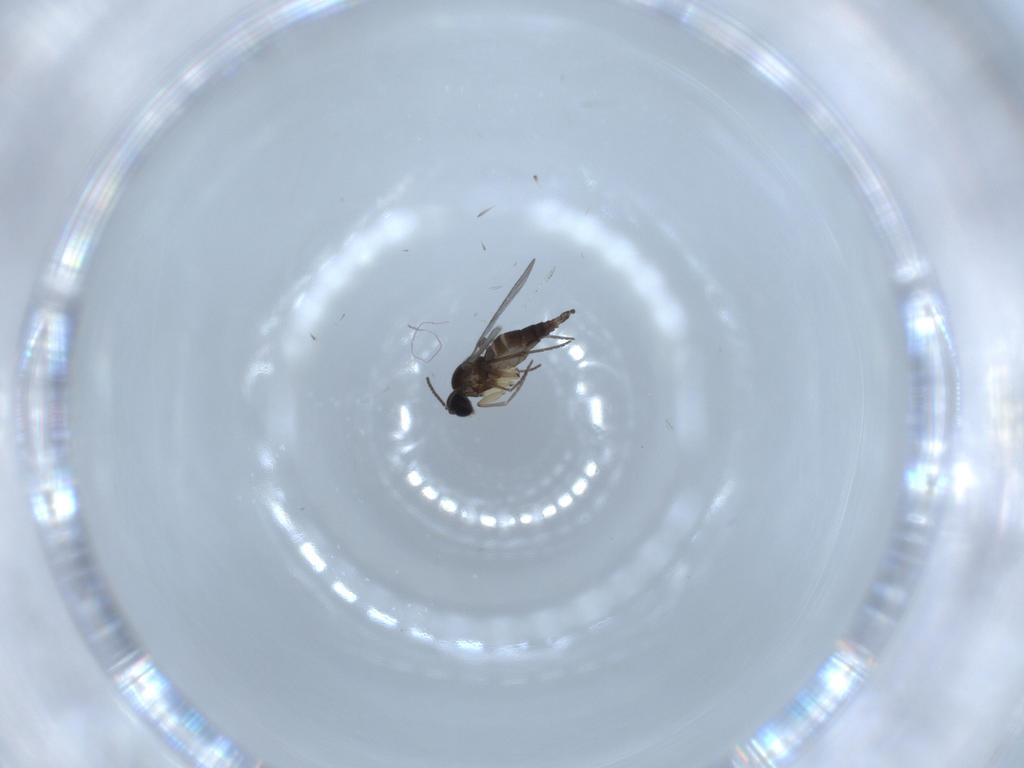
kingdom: Animalia
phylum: Arthropoda
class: Insecta
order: Diptera
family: Sciaridae
